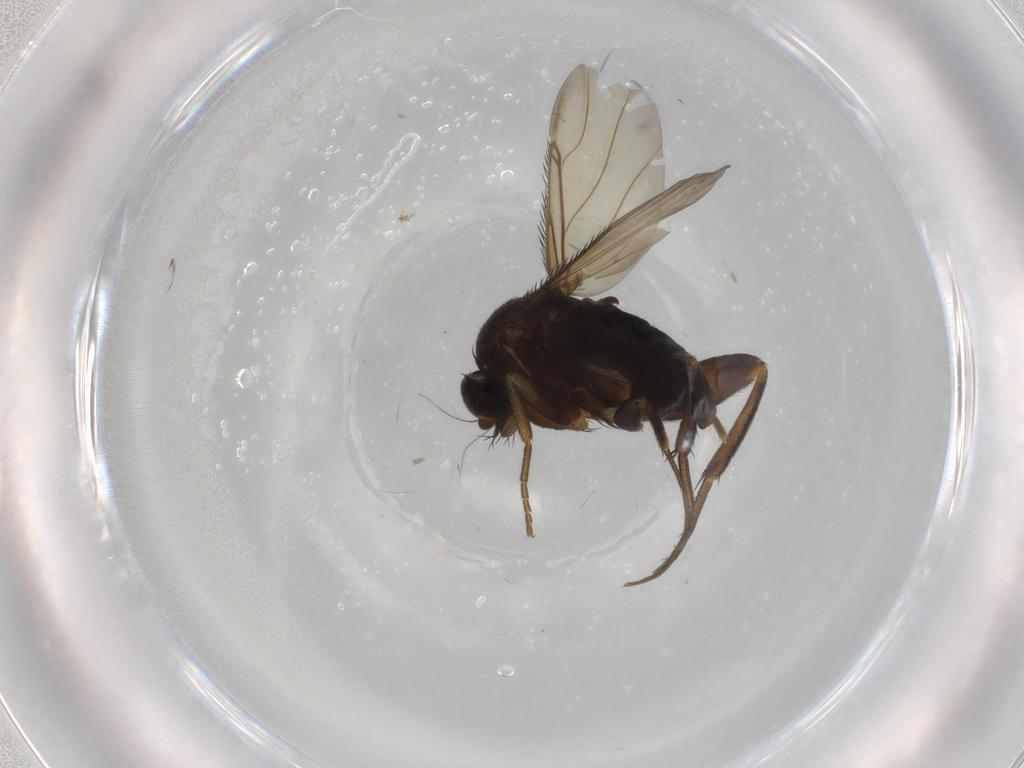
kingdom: Animalia
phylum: Arthropoda
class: Insecta
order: Diptera
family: Phoridae
